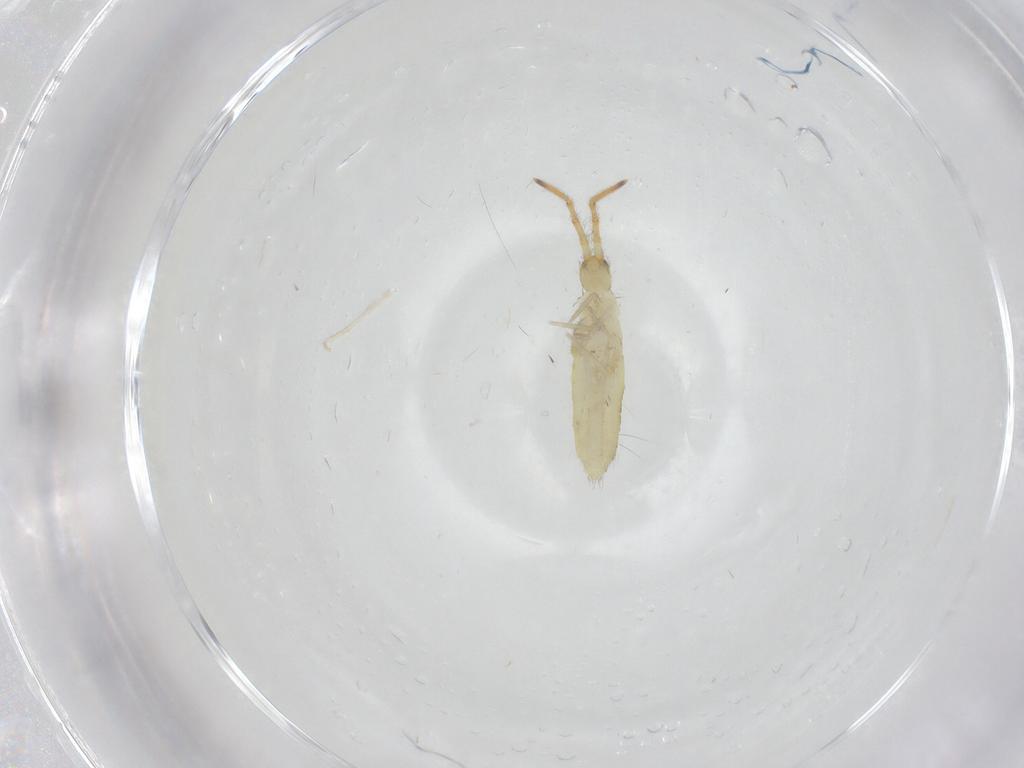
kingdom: Animalia
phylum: Arthropoda
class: Collembola
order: Entomobryomorpha
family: Entomobryidae
